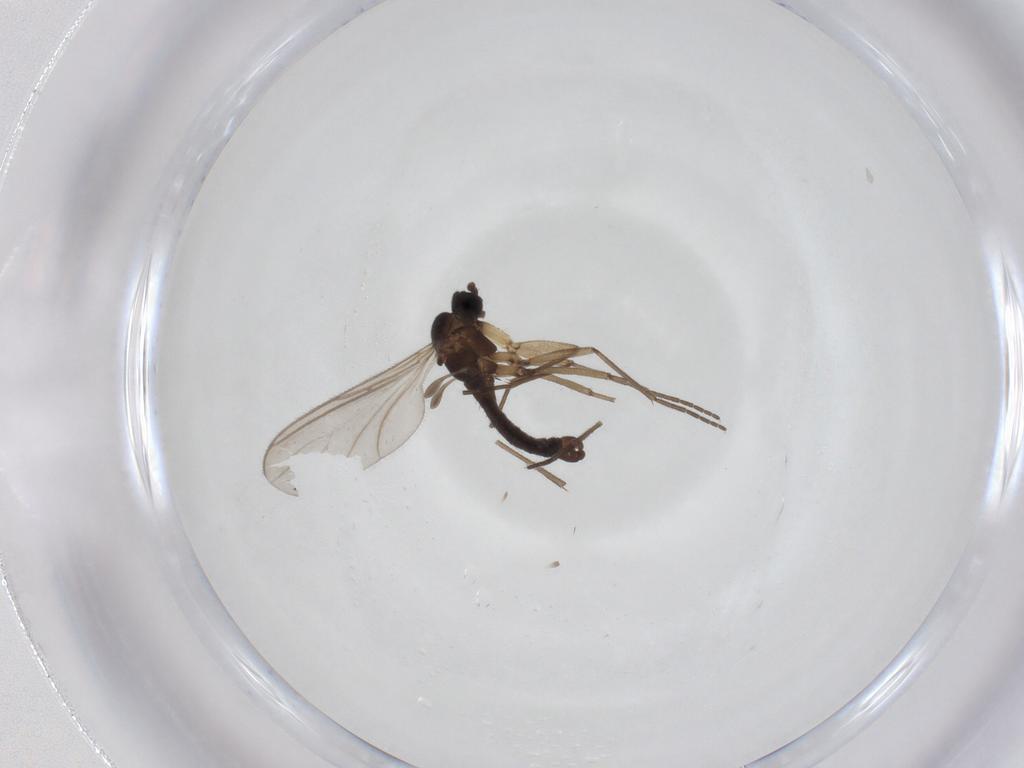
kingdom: Animalia
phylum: Arthropoda
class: Insecta
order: Diptera
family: Sciaridae
